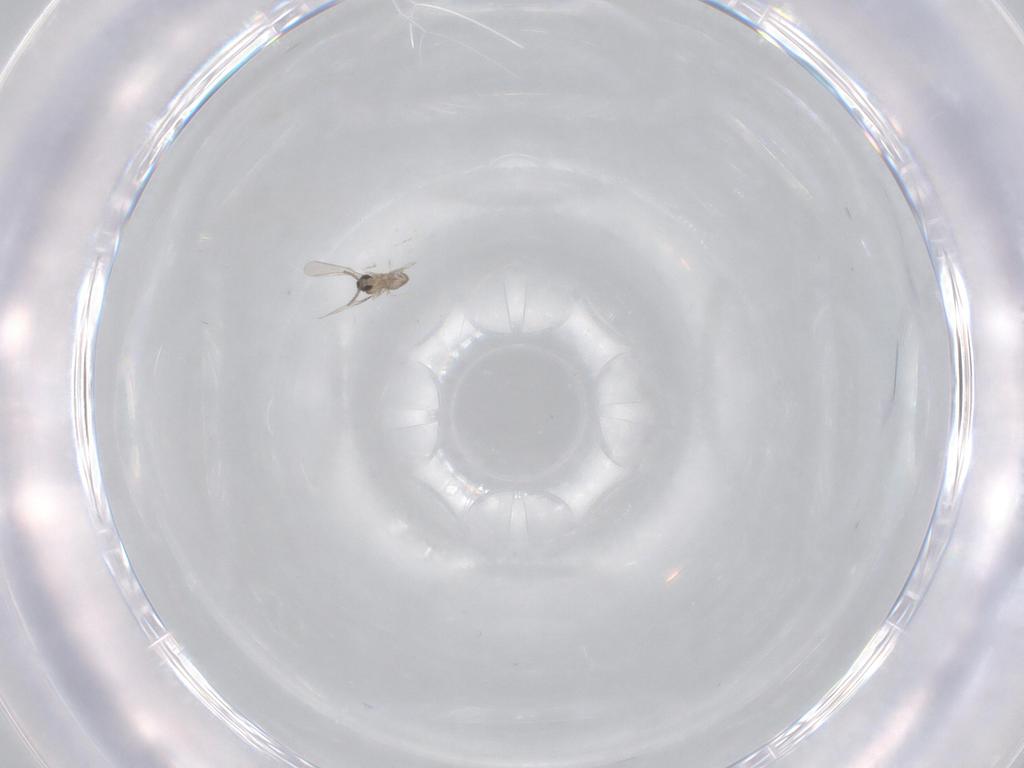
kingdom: Animalia
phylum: Arthropoda
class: Insecta
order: Diptera
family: Cecidomyiidae
